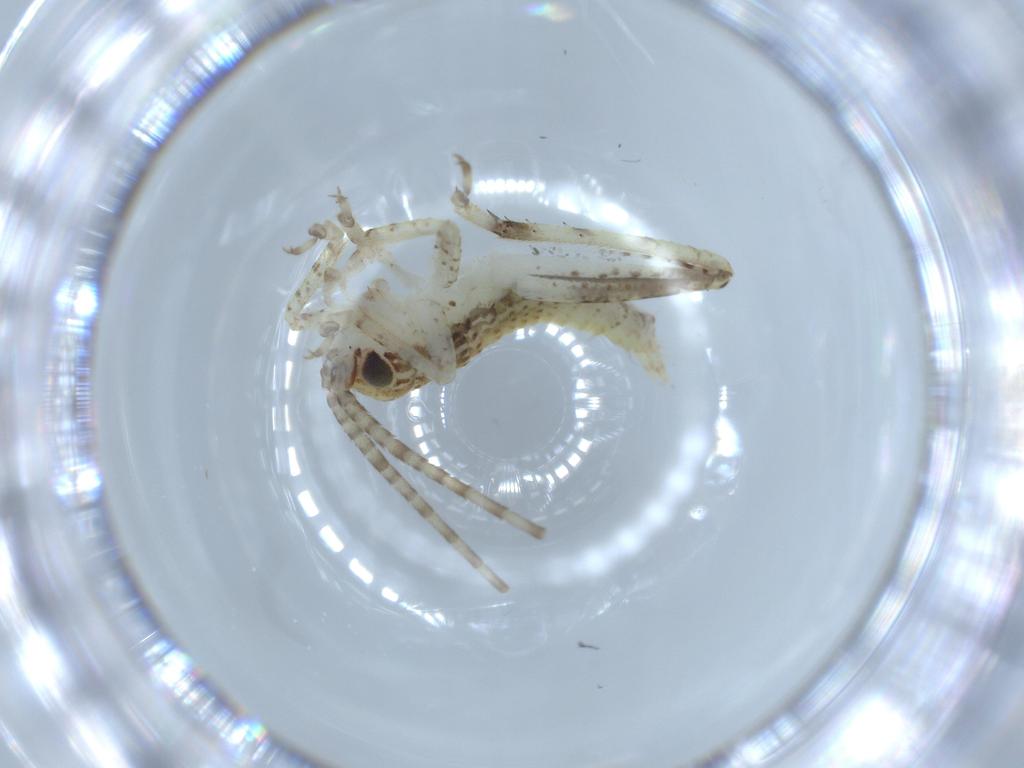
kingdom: Animalia
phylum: Arthropoda
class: Insecta
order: Orthoptera
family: Gryllidae
